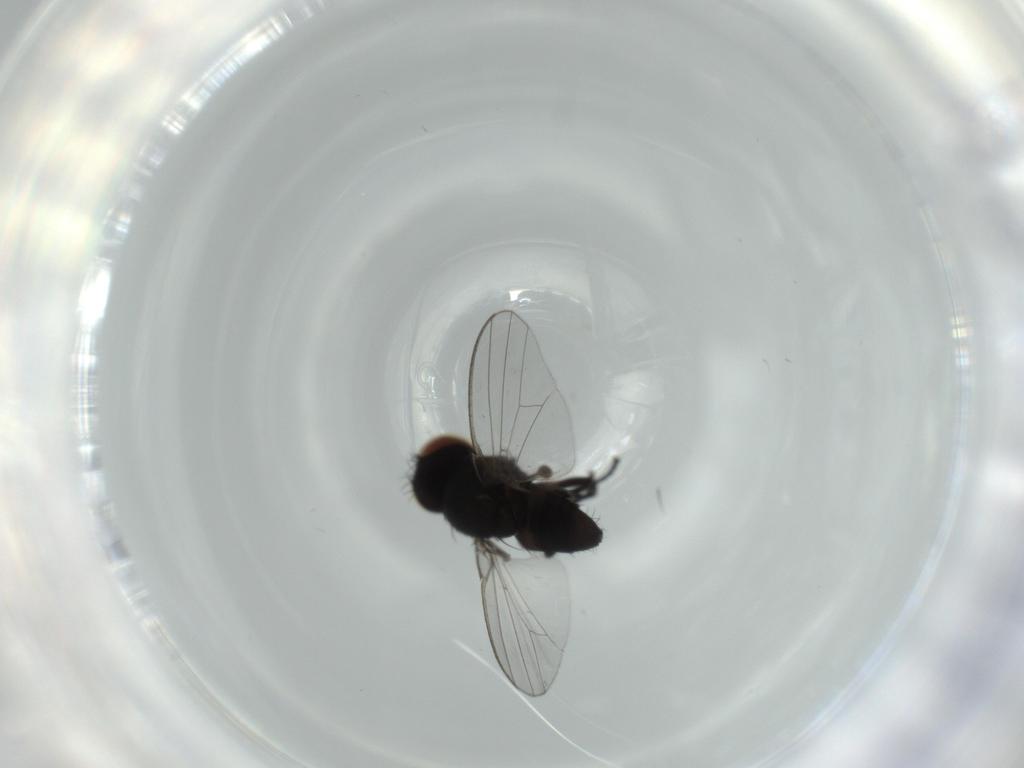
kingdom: Animalia
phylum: Arthropoda
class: Insecta
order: Diptera
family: Milichiidae
